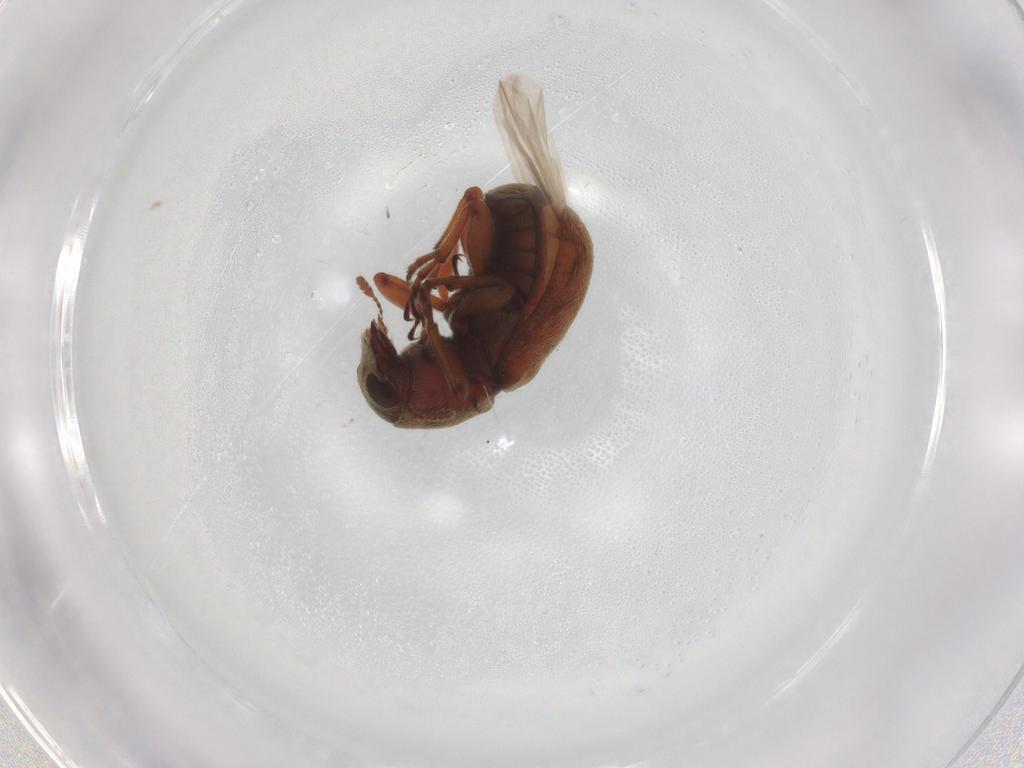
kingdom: Animalia
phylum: Arthropoda
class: Insecta
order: Coleoptera
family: Anthribidae
